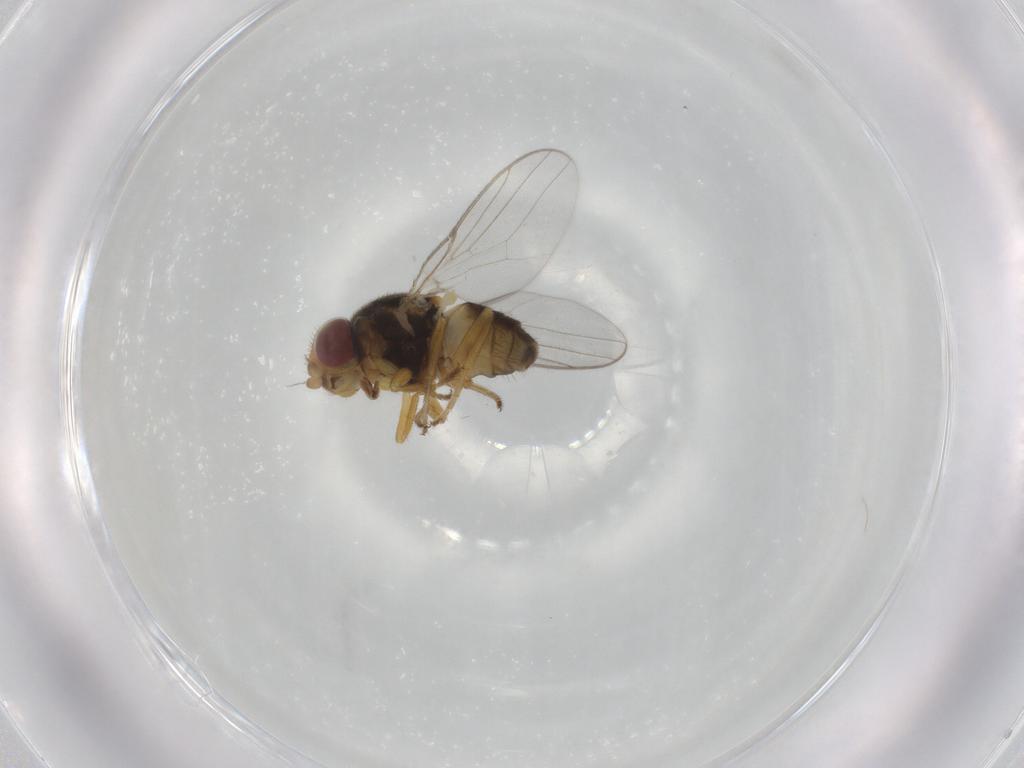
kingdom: Animalia
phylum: Arthropoda
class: Insecta
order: Diptera
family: Chloropidae
